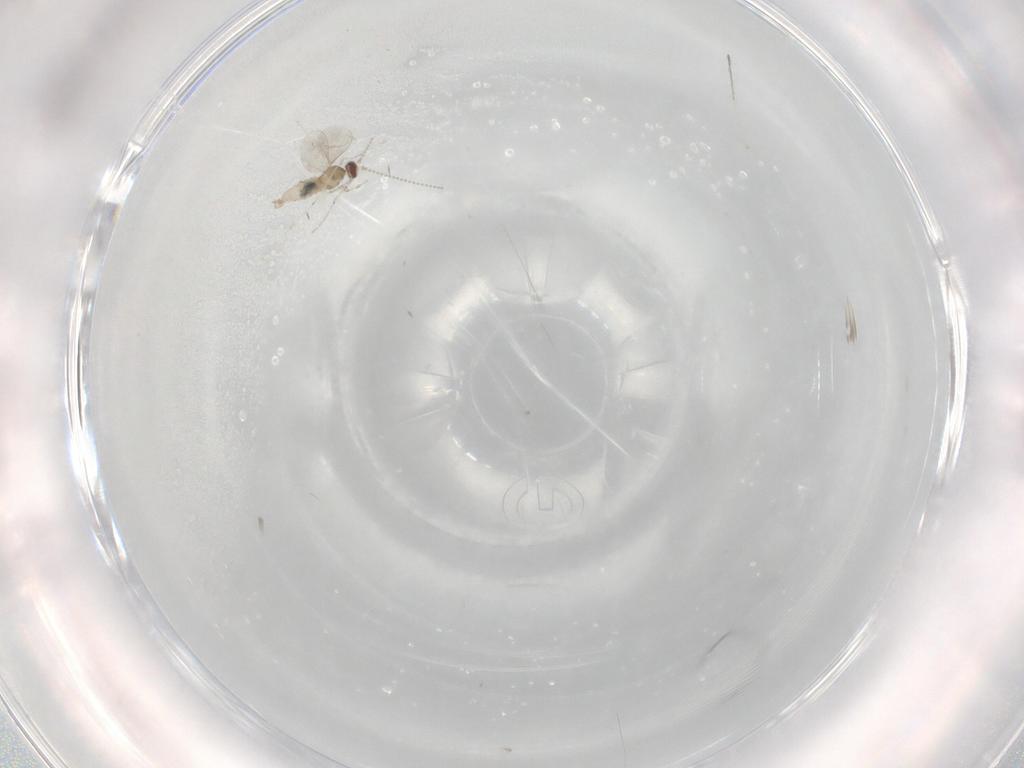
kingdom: Animalia
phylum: Arthropoda
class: Insecta
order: Diptera
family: Cecidomyiidae
